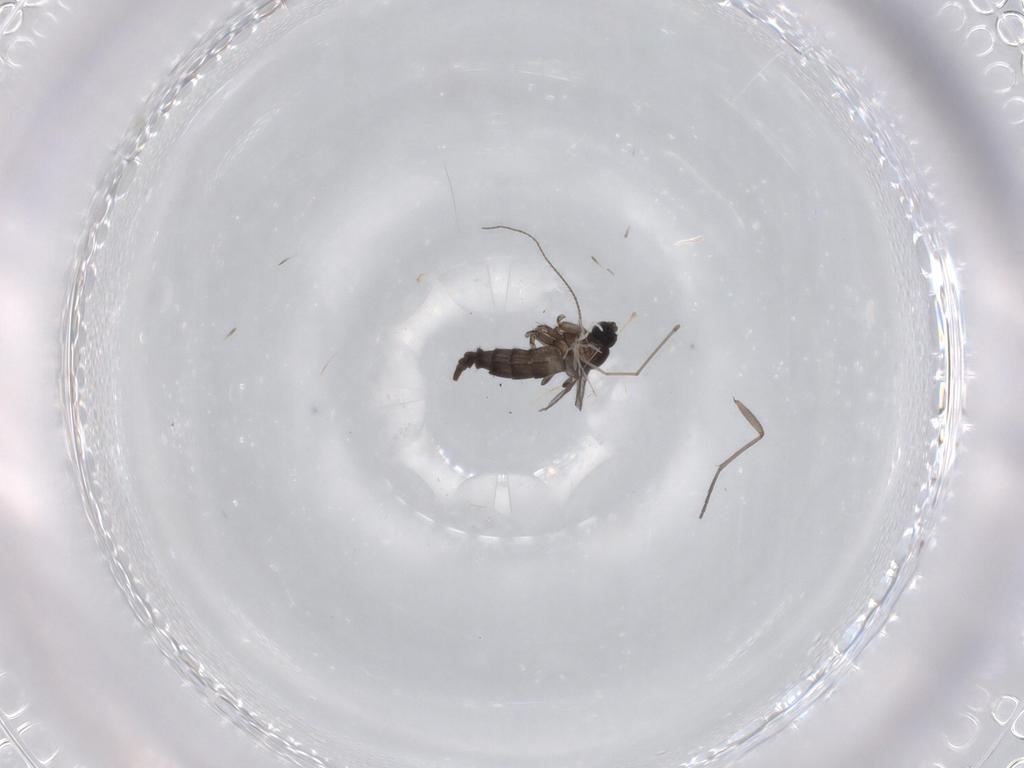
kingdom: Animalia
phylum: Arthropoda
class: Insecta
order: Diptera
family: Sciaridae
